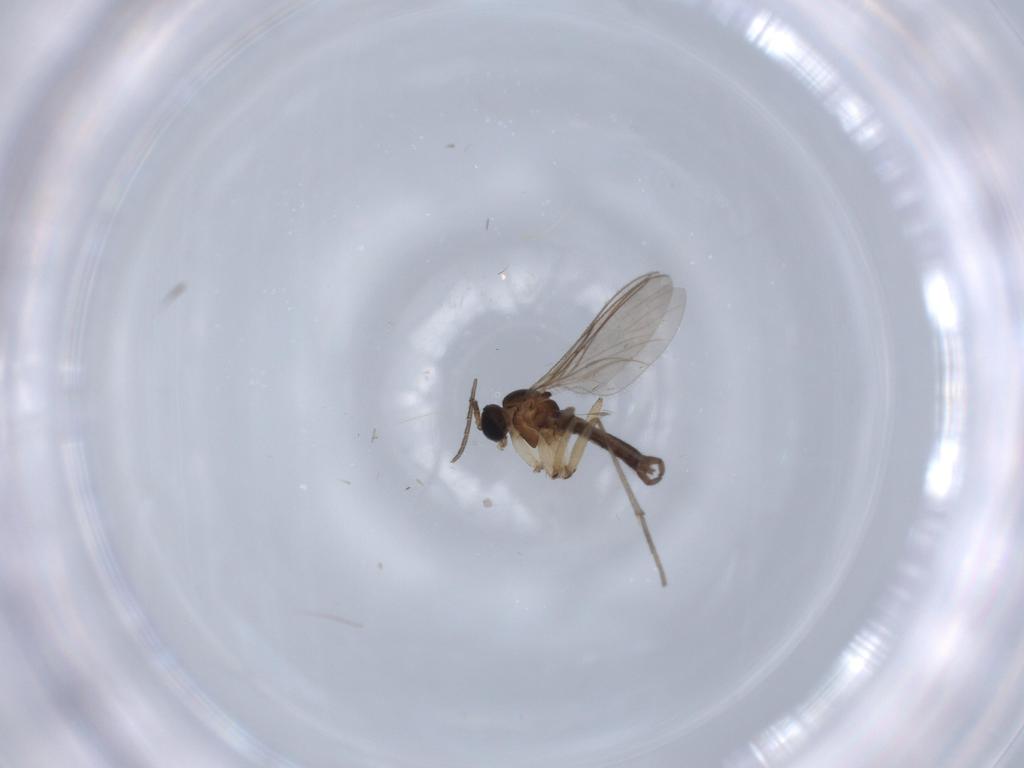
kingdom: Animalia
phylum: Arthropoda
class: Insecta
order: Diptera
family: Sciaridae
